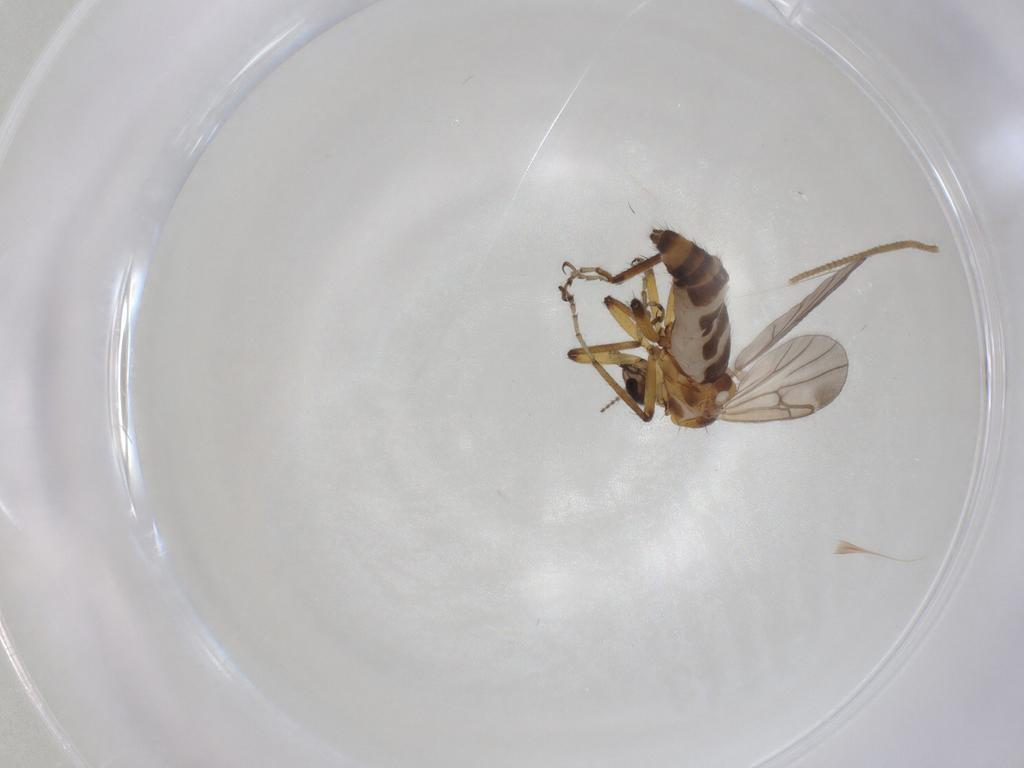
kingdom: Animalia
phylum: Arthropoda
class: Insecta
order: Diptera
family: Ceratopogonidae
